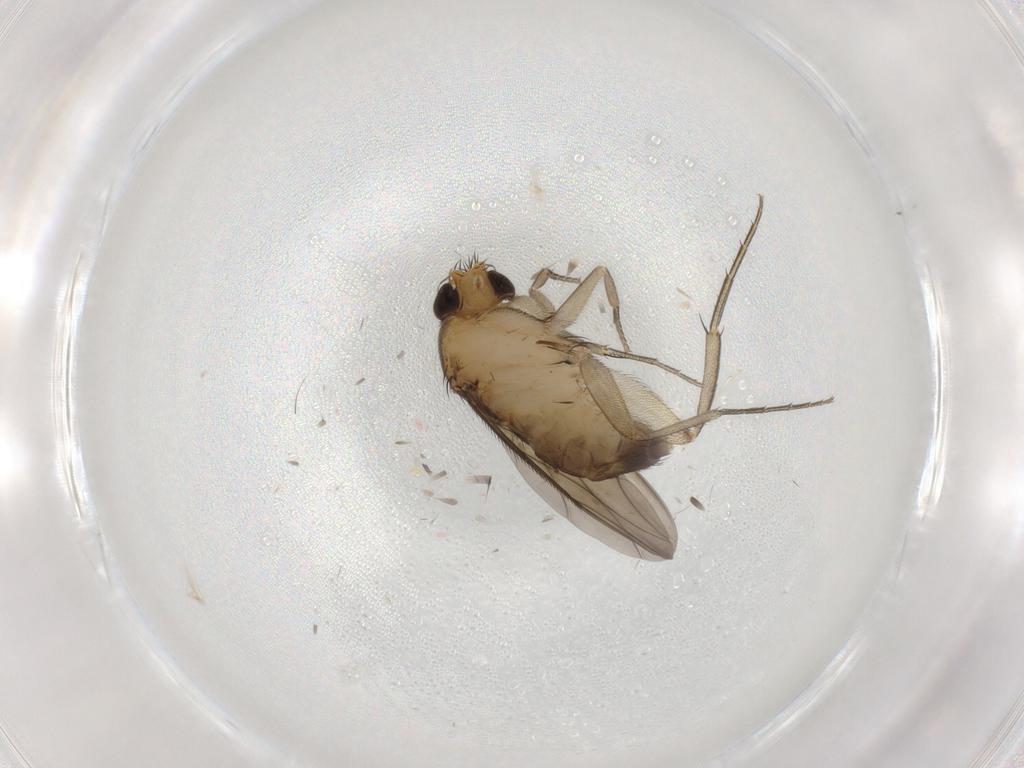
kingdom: Animalia
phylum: Arthropoda
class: Insecta
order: Diptera
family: Phoridae
